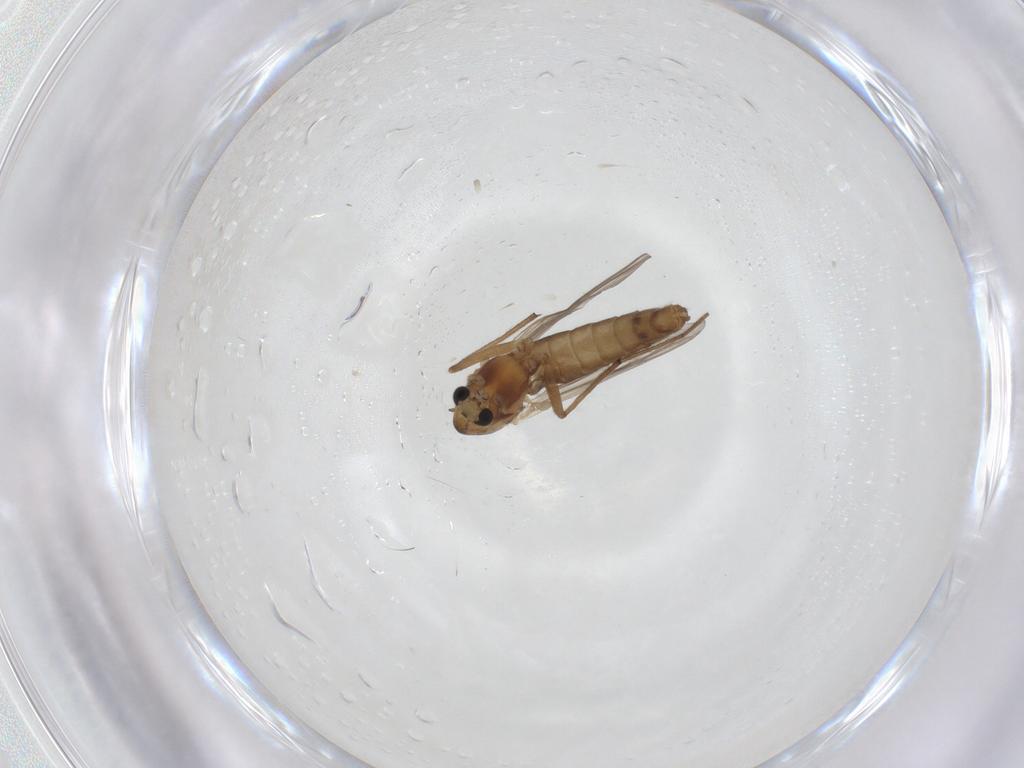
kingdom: Animalia
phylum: Arthropoda
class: Insecta
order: Diptera
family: Chironomidae
